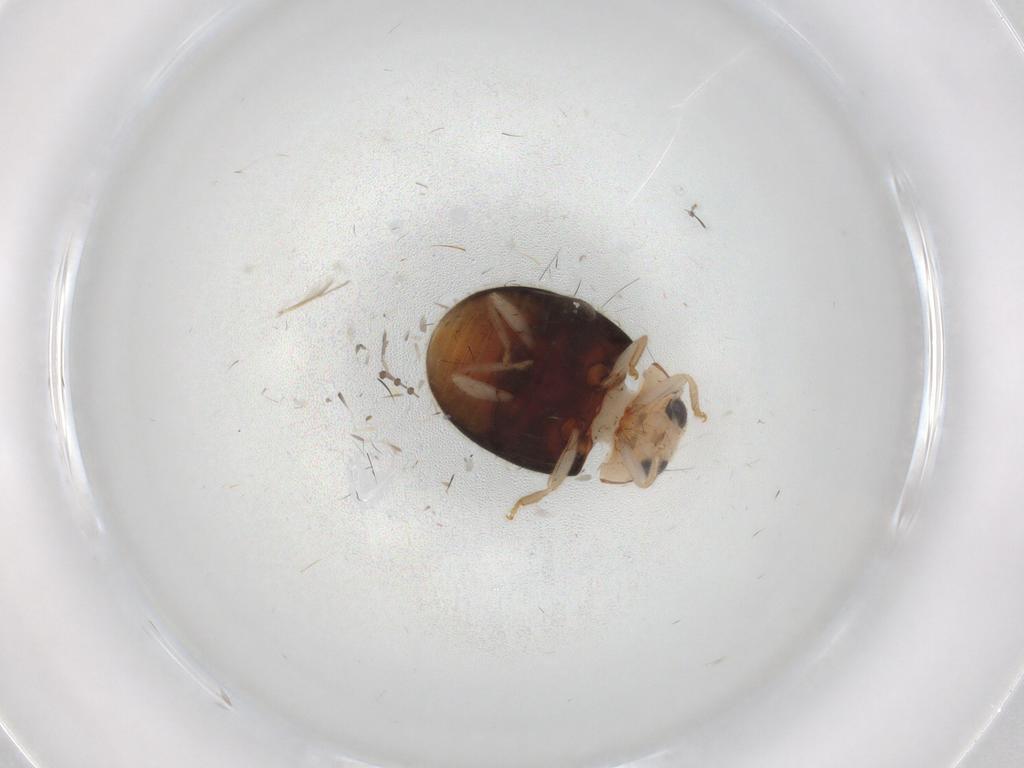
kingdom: Animalia
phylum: Arthropoda
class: Insecta
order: Coleoptera
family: Coccinellidae
